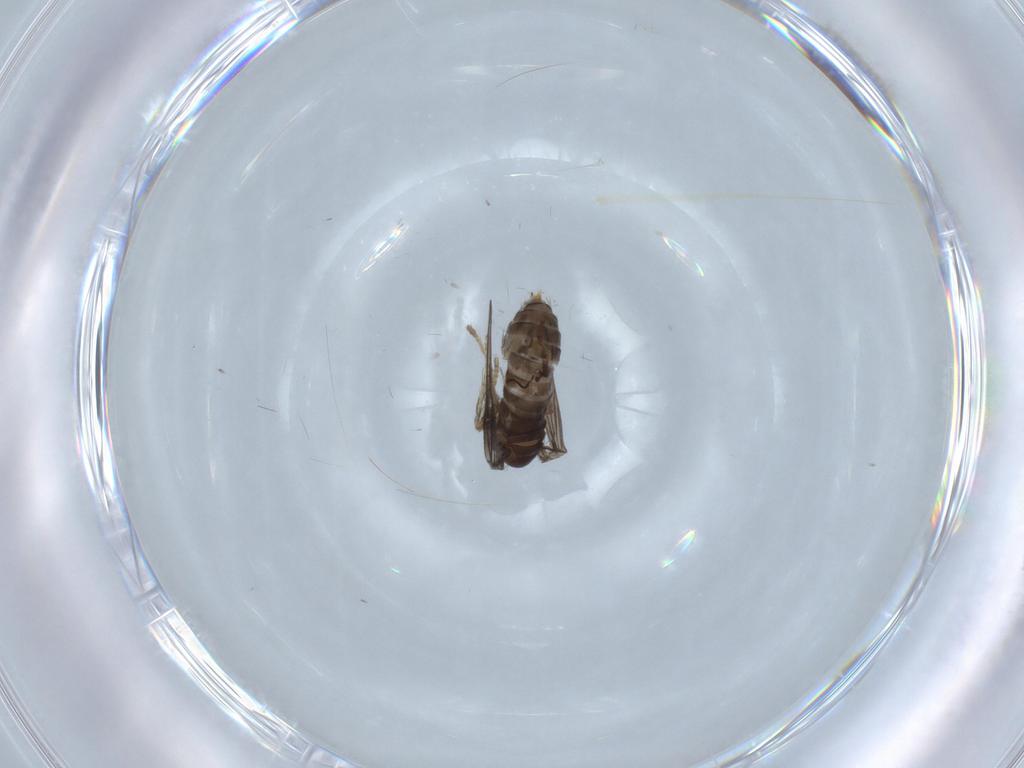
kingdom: Animalia
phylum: Arthropoda
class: Insecta
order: Diptera
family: Psychodidae
